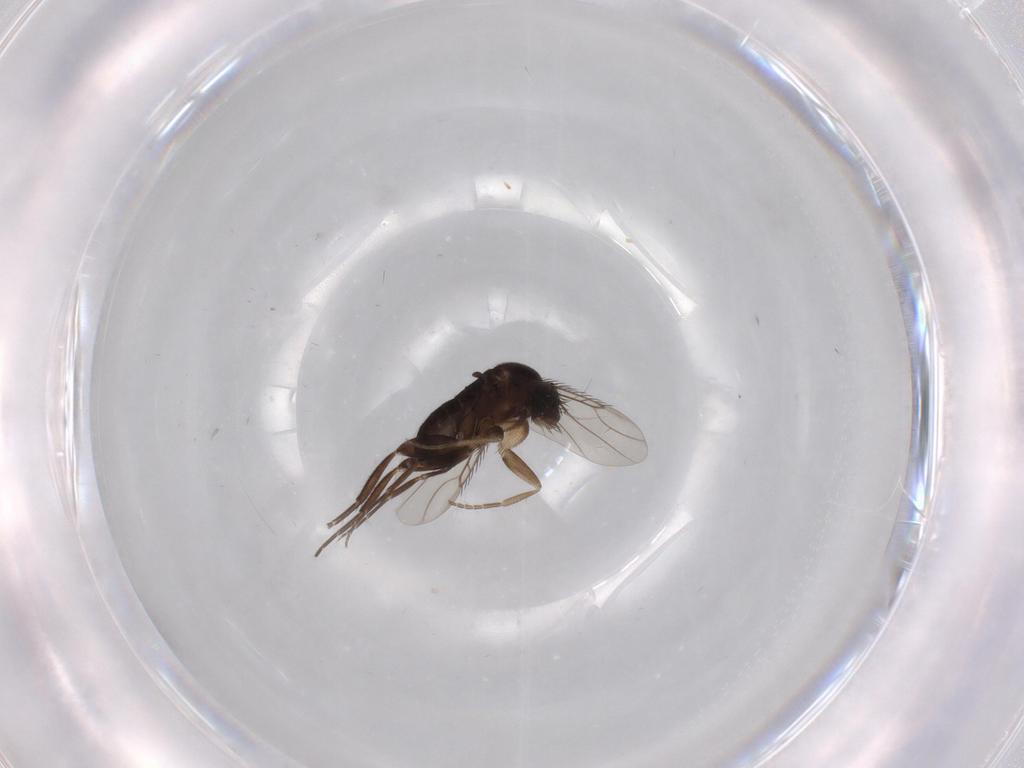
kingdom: Animalia
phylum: Arthropoda
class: Insecta
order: Diptera
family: Phoridae
